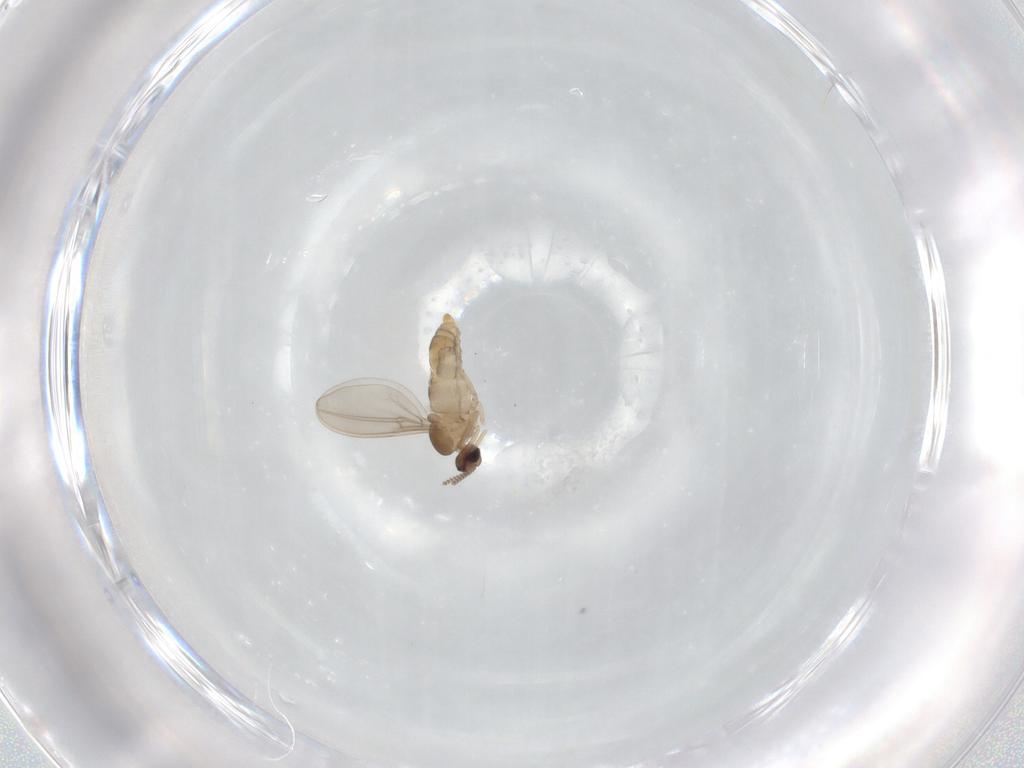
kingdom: Animalia
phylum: Arthropoda
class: Insecta
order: Diptera
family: Cecidomyiidae
